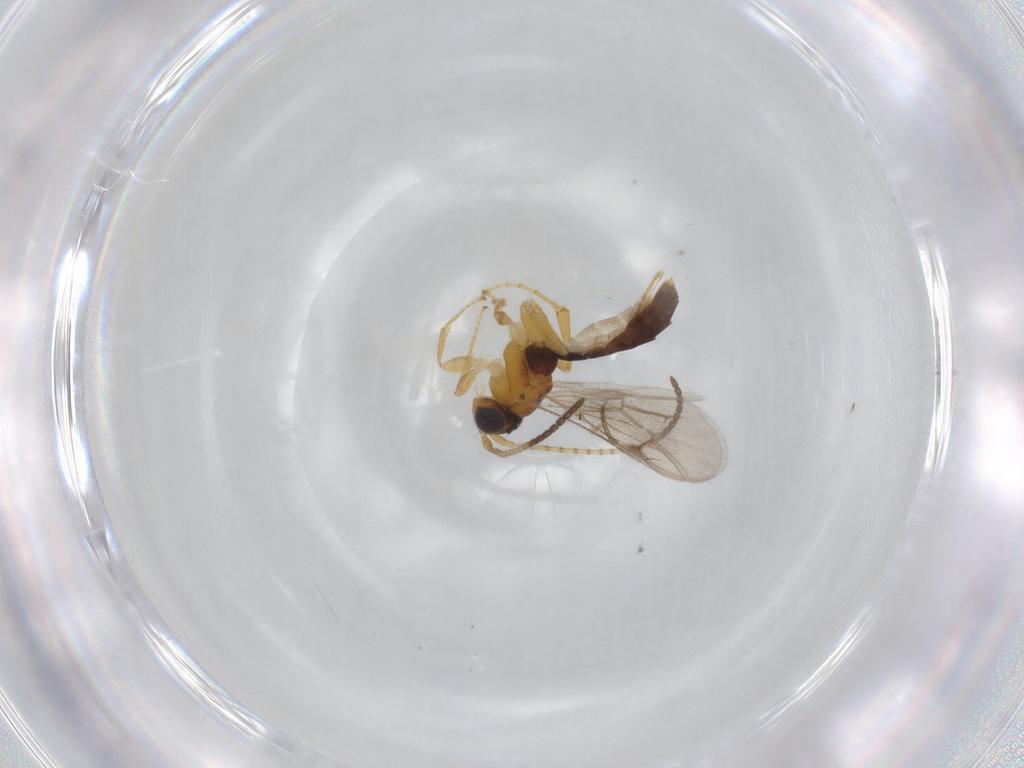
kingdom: Animalia
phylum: Arthropoda
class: Insecta
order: Hymenoptera
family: Ichneumonidae
